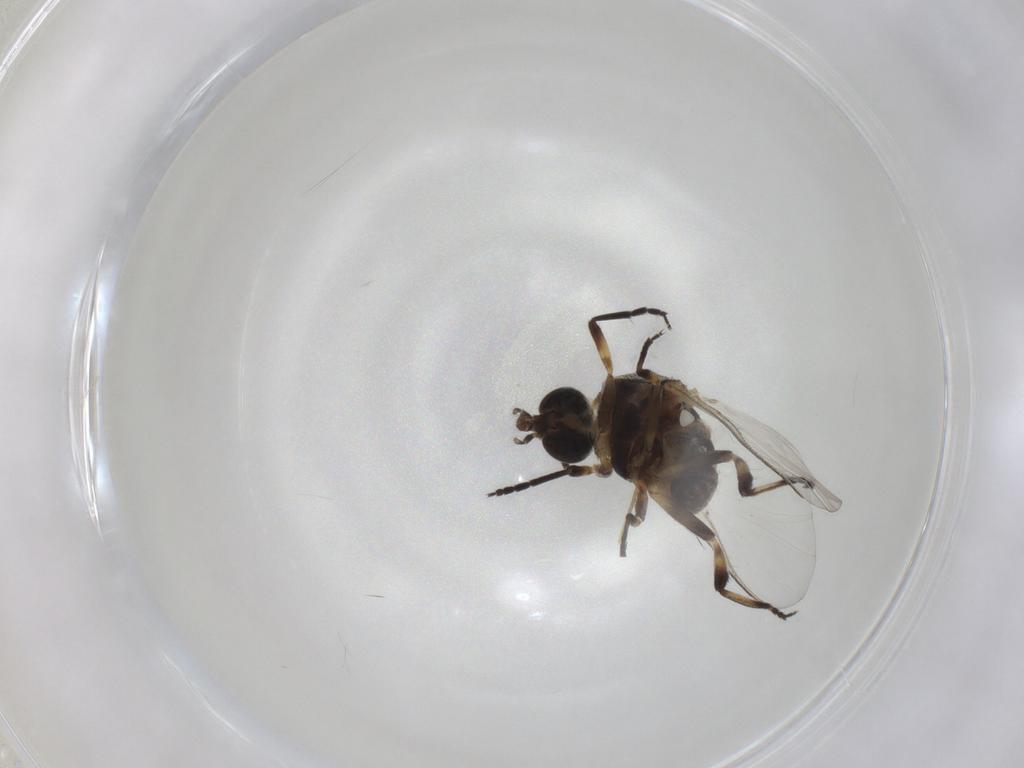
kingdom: Animalia
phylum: Arthropoda
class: Insecta
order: Diptera
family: Phoridae
